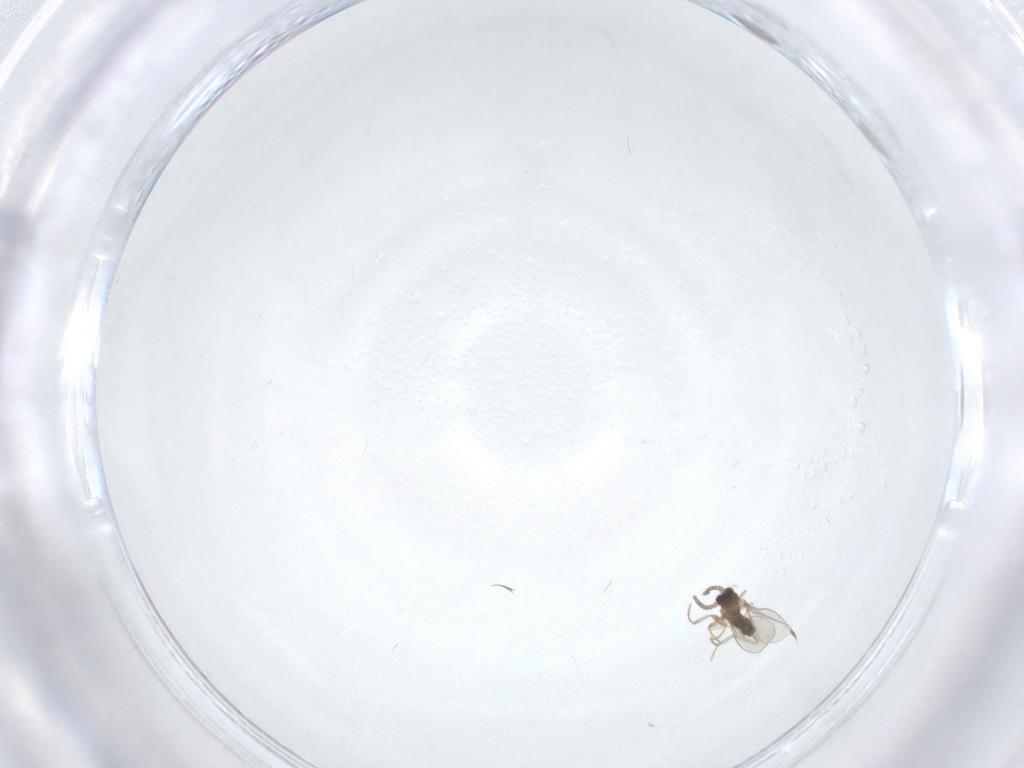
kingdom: Animalia
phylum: Arthropoda
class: Insecta
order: Diptera
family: Cecidomyiidae
